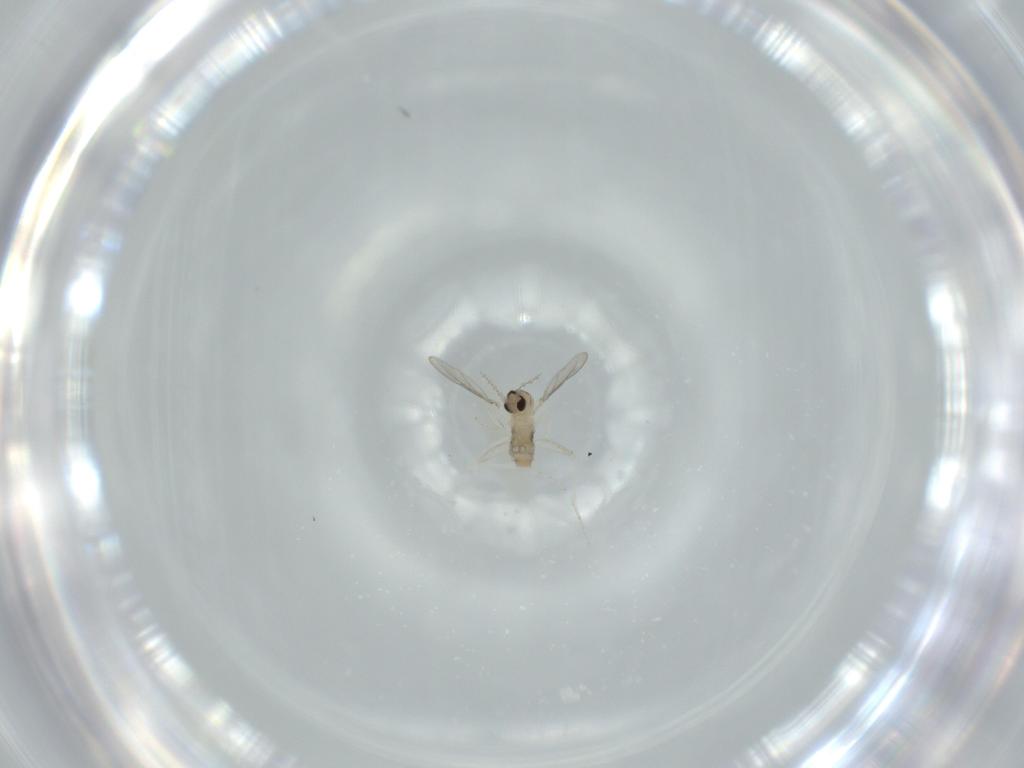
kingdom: Animalia
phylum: Arthropoda
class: Insecta
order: Diptera
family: Cecidomyiidae
